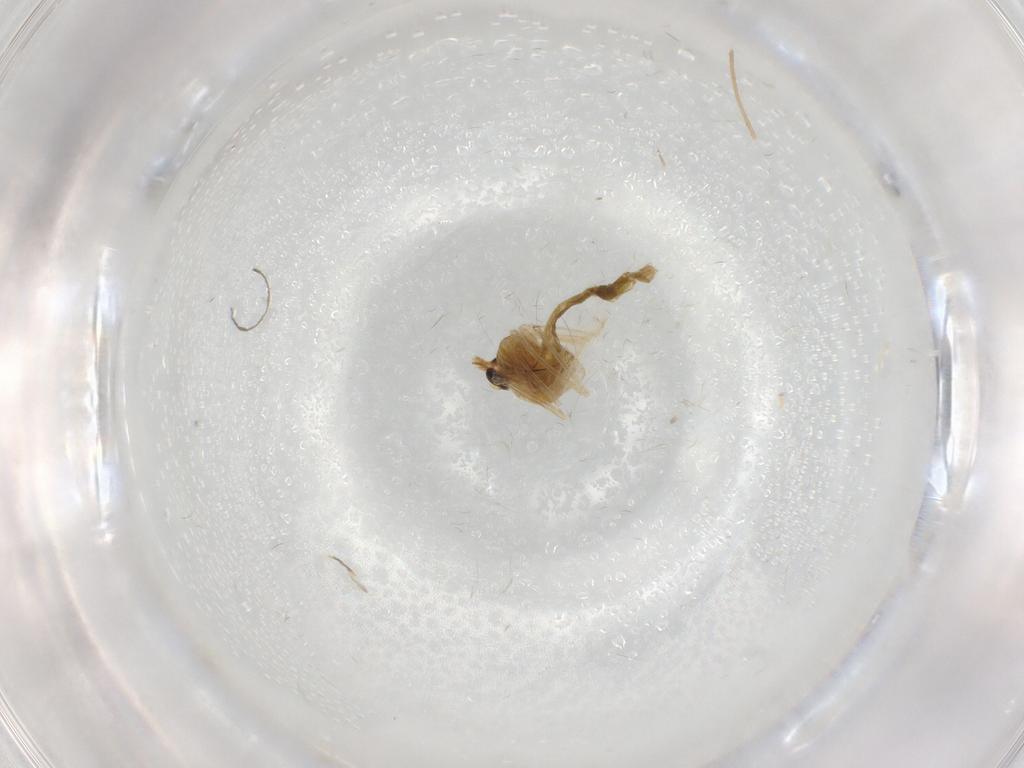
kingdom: Animalia
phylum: Arthropoda
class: Insecta
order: Diptera
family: Chironomidae
